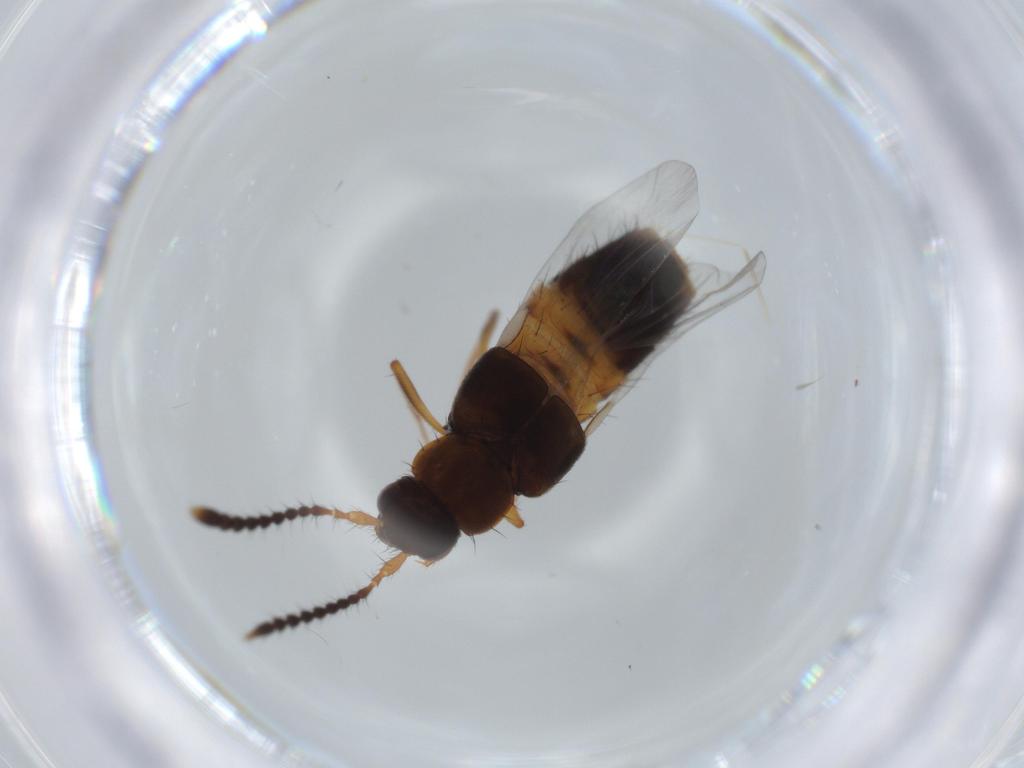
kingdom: Animalia
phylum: Arthropoda
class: Insecta
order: Coleoptera
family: Staphylinidae
